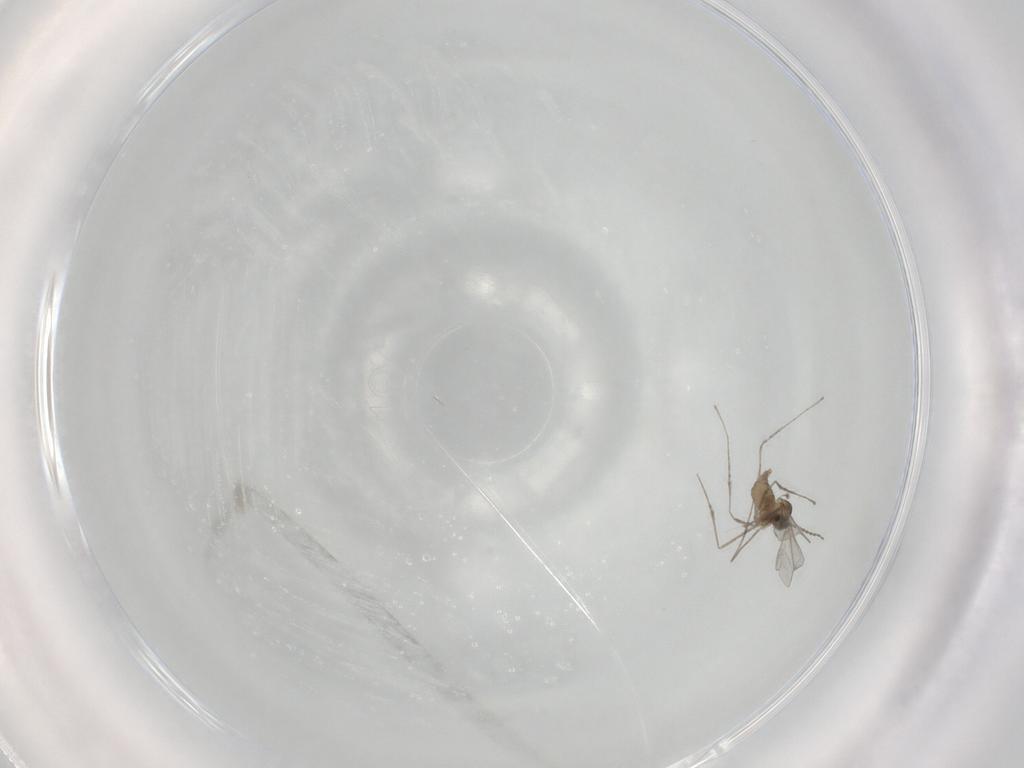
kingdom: Animalia
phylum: Arthropoda
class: Insecta
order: Diptera
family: Cecidomyiidae
